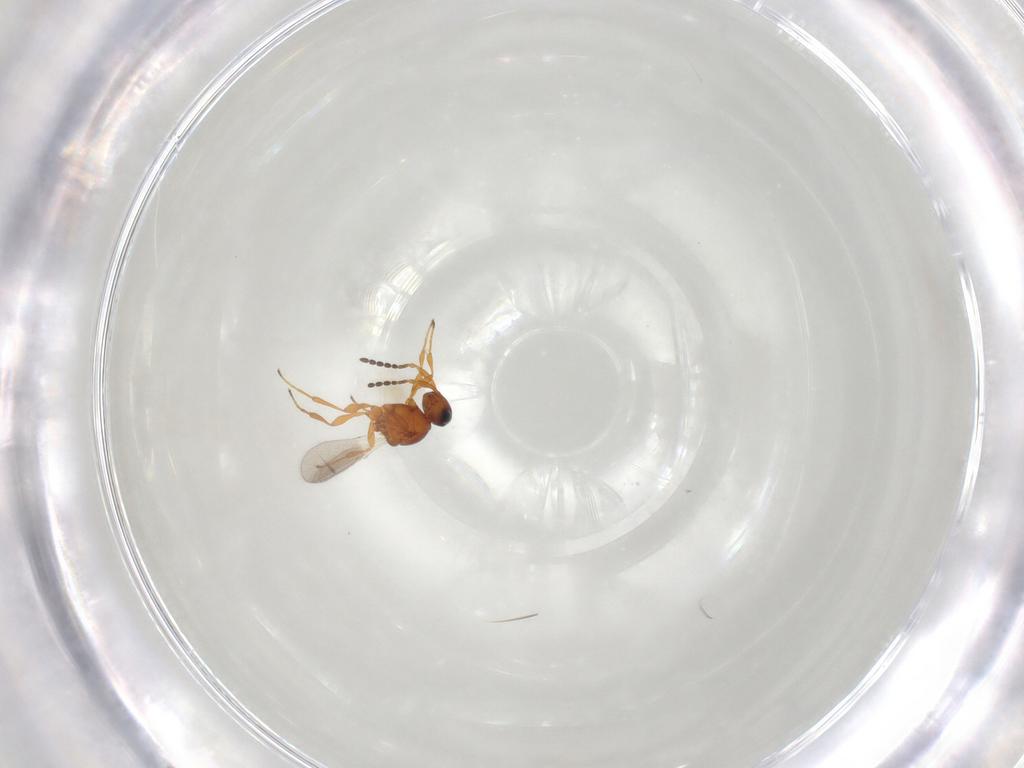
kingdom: Animalia
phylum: Arthropoda
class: Insecta
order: Hymenoptera
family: Platygastridae
